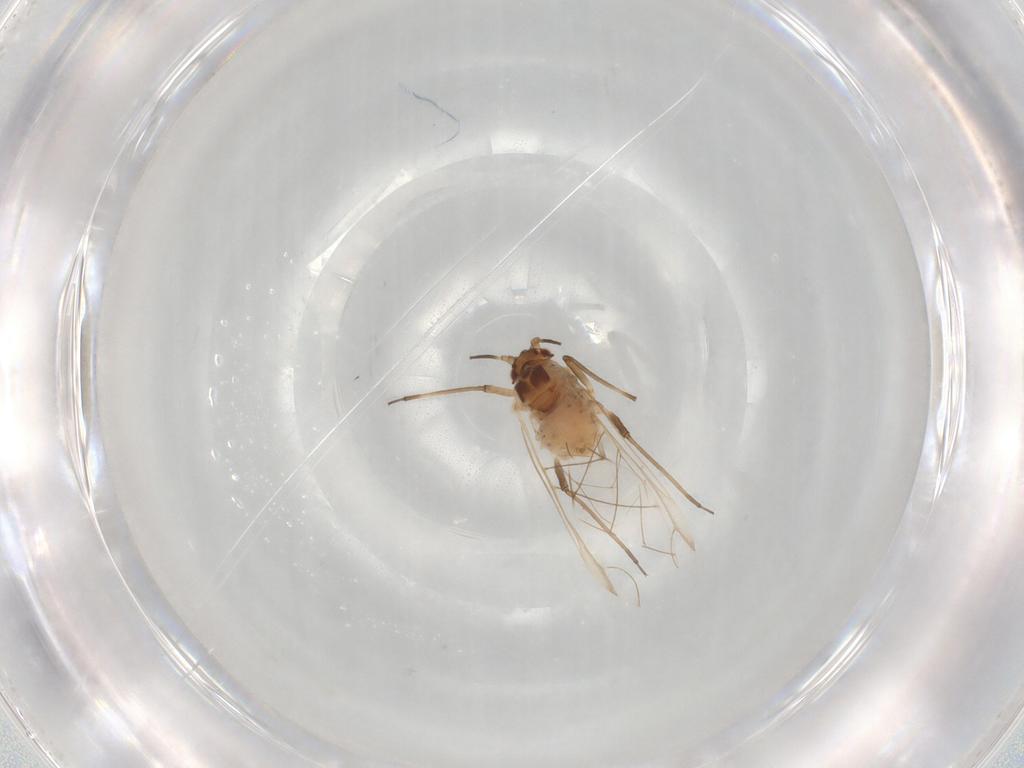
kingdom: Animalia
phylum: Arthropoda
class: Insecta
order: Hemiptera
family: Aphididae
